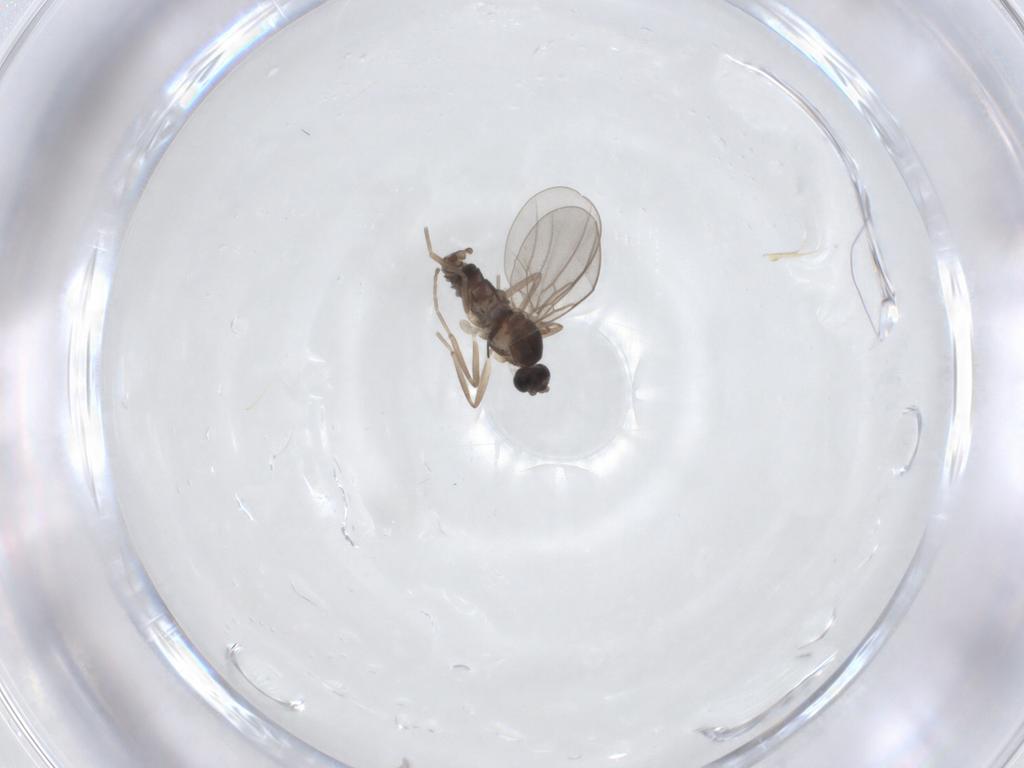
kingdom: Animalia
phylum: Arthropoda
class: Insecta
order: Diptera
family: Cecidomyiidae
